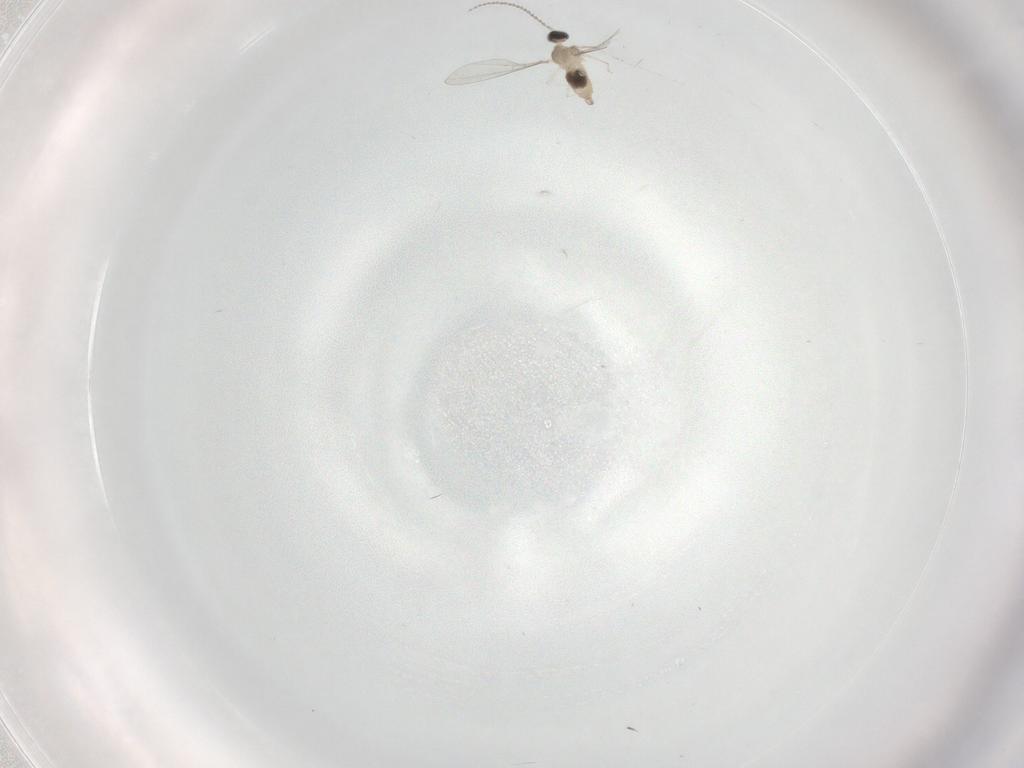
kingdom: Animalia
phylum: Arthropoda
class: Insecta
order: Diptera
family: Cecidomyiidae
